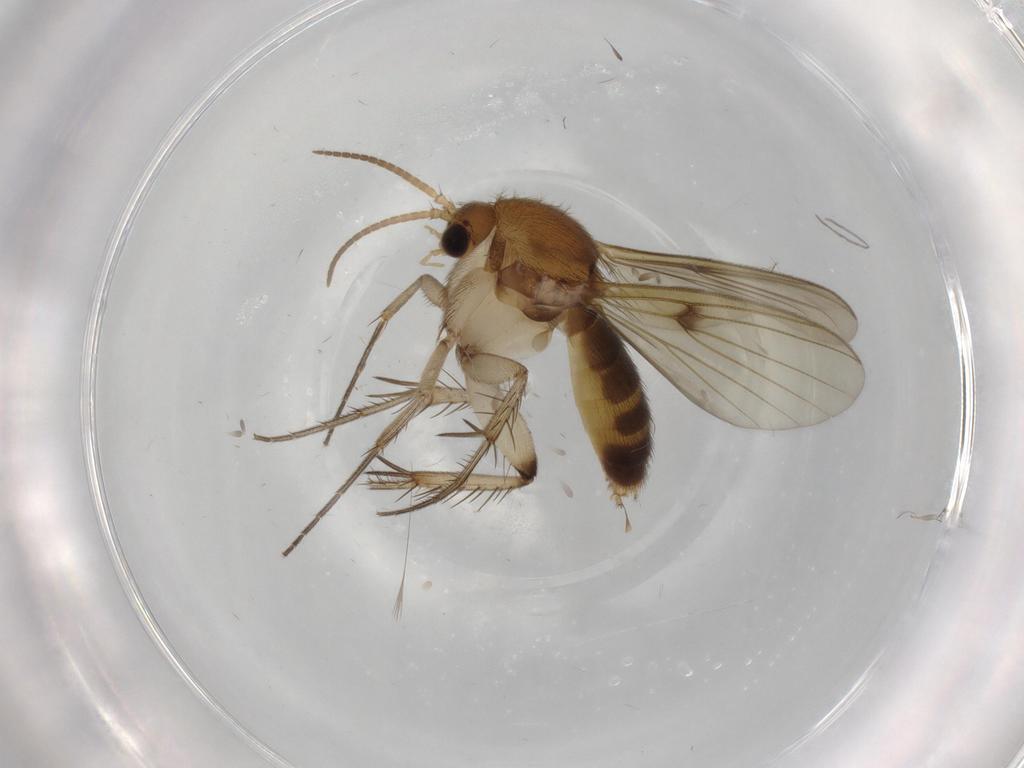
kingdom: Animalia
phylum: Arthropoda
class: Insecta
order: Diptera
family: Mycetophilidae
